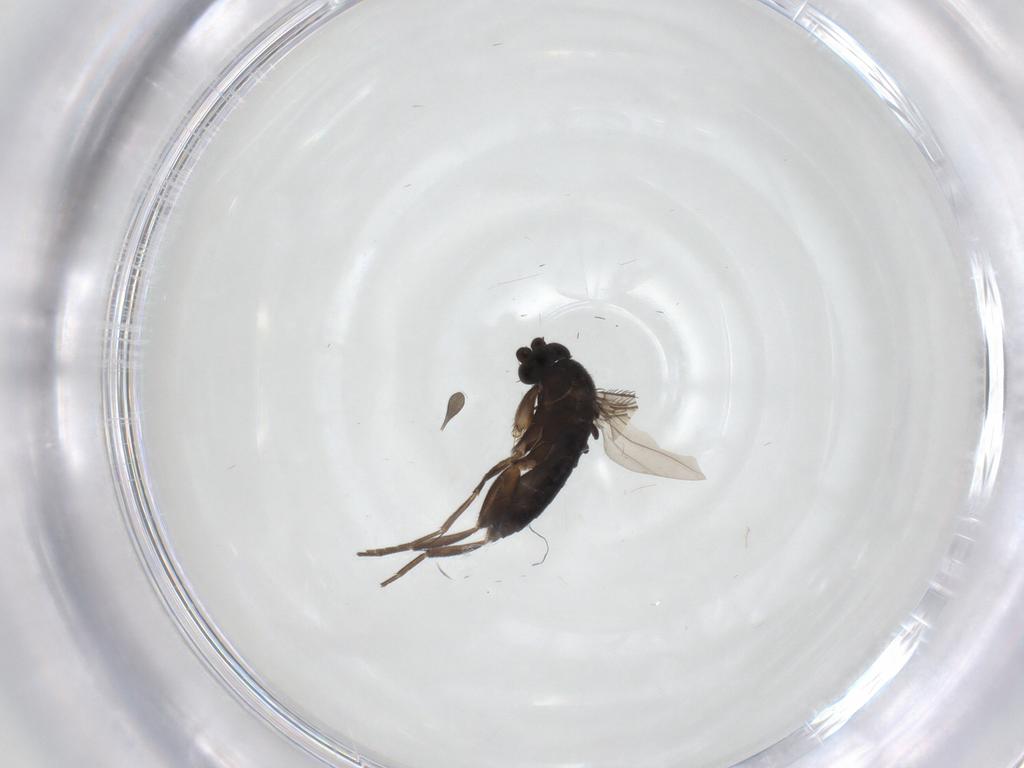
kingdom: Animalia
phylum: Arthropoda
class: Insecta
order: Diptera
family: Phoridae
